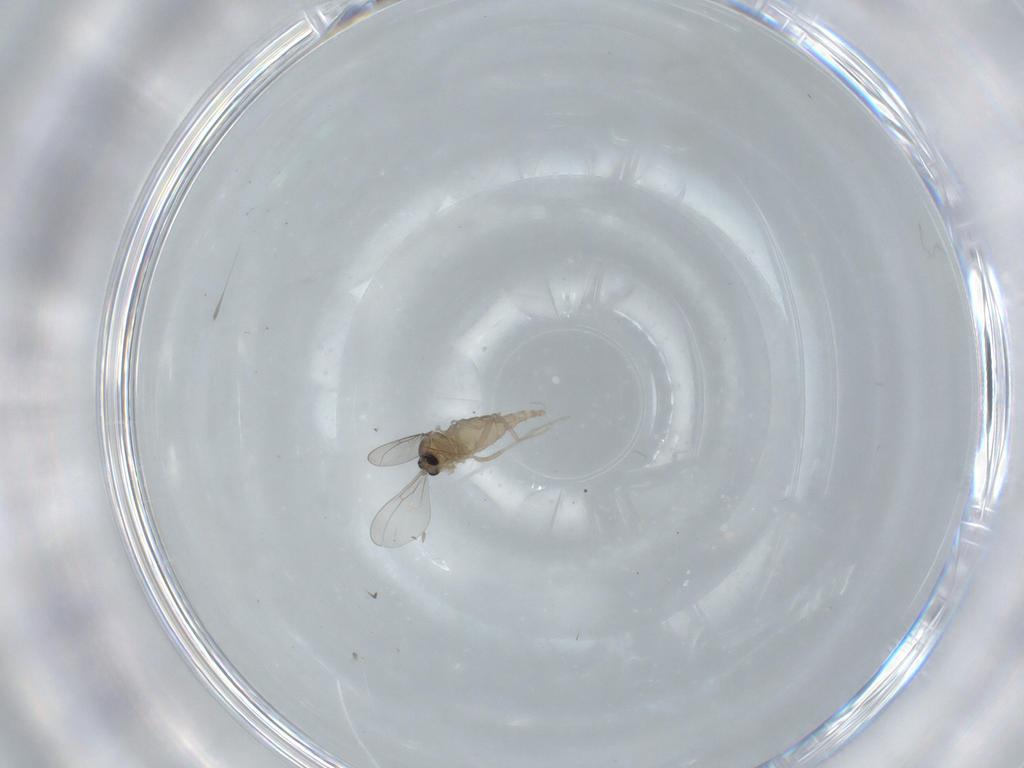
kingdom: Animalia
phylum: Arthropoda
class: Insecta
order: Diptera
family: Cecidomyiidae
